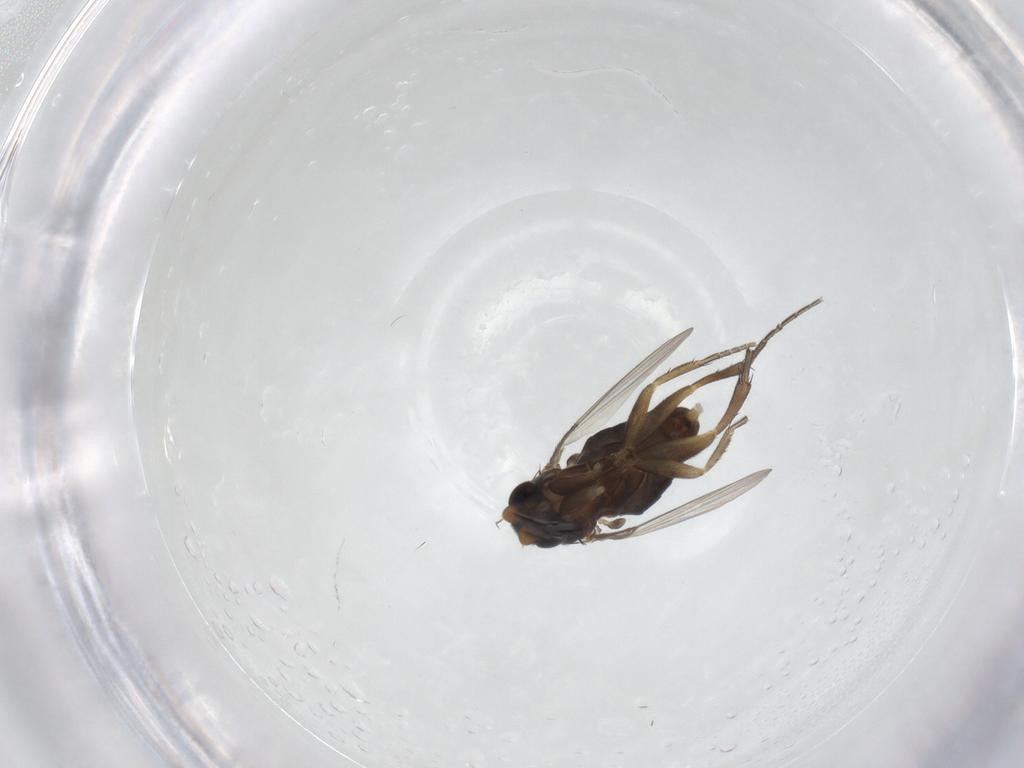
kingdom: Animalia
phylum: Arthropoda
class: Insecta
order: Diptera
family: Phoridae
